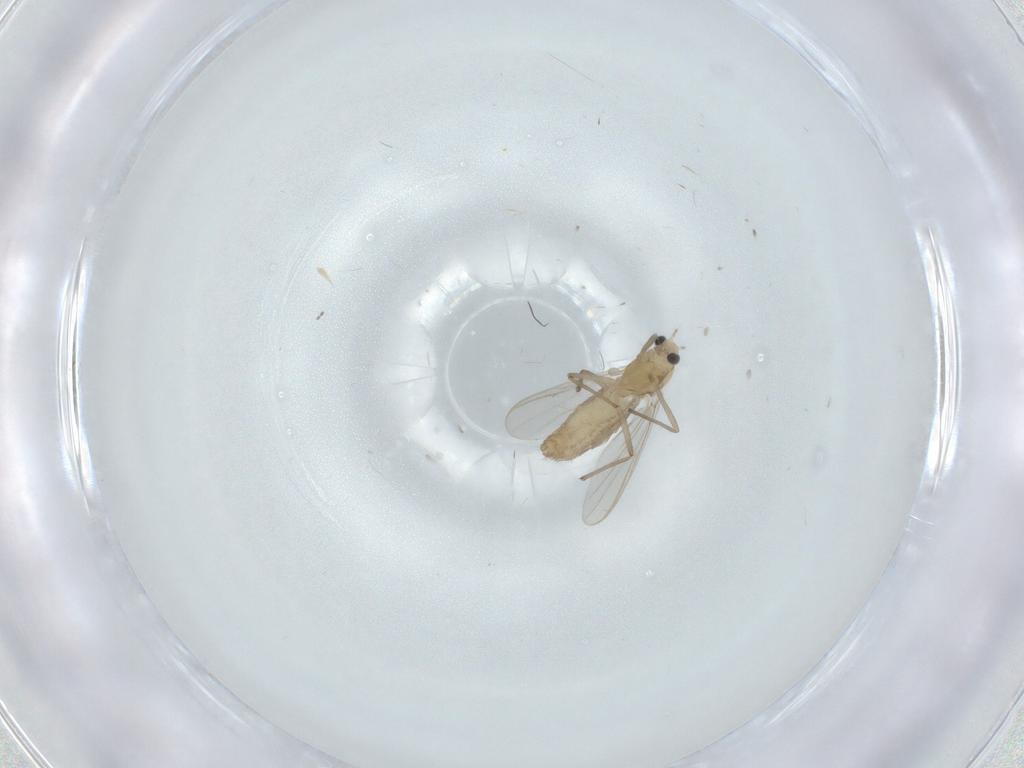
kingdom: Animalia
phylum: Arthropoda
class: Insecta
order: Diptera
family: Chironomidae
